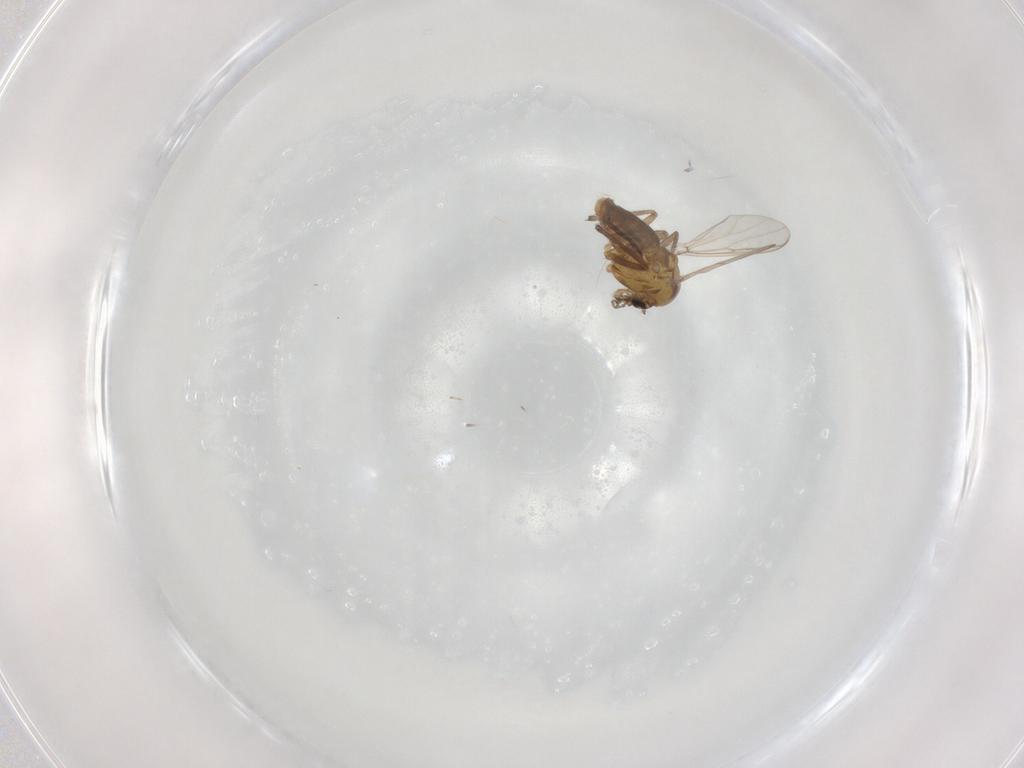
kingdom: Animalia
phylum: Arthropoda
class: Insecta
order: Diptera
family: Chironomidae
